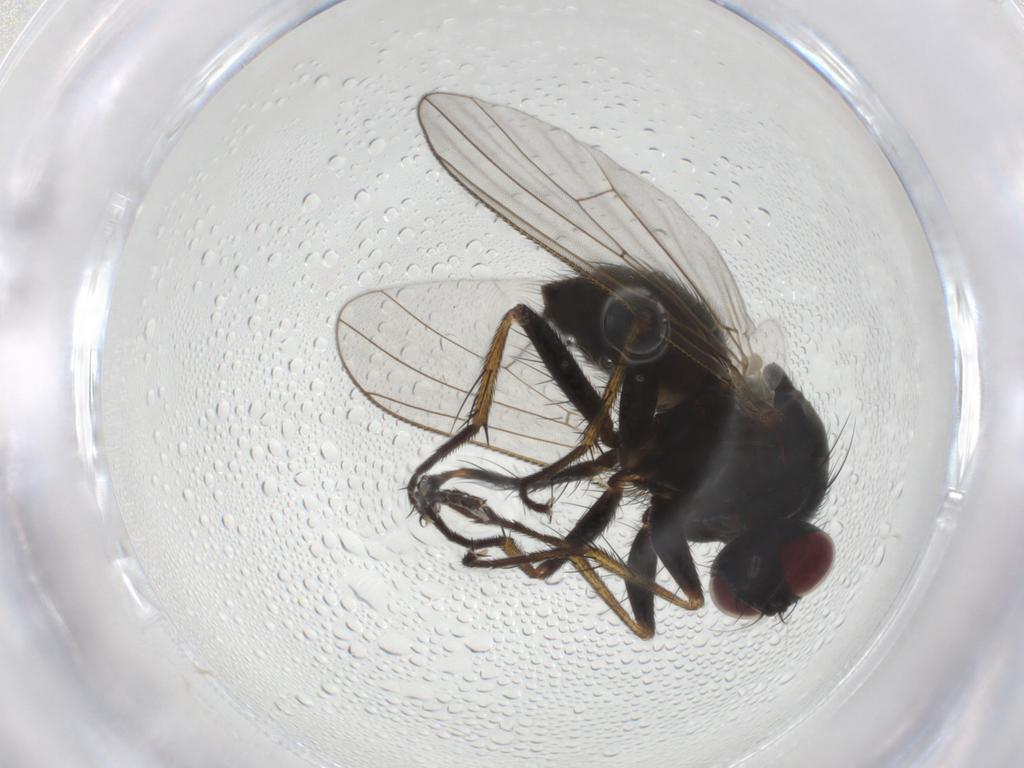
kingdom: Animalia
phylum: Arthropoda
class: Insecta
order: Diptera
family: Muscidae
